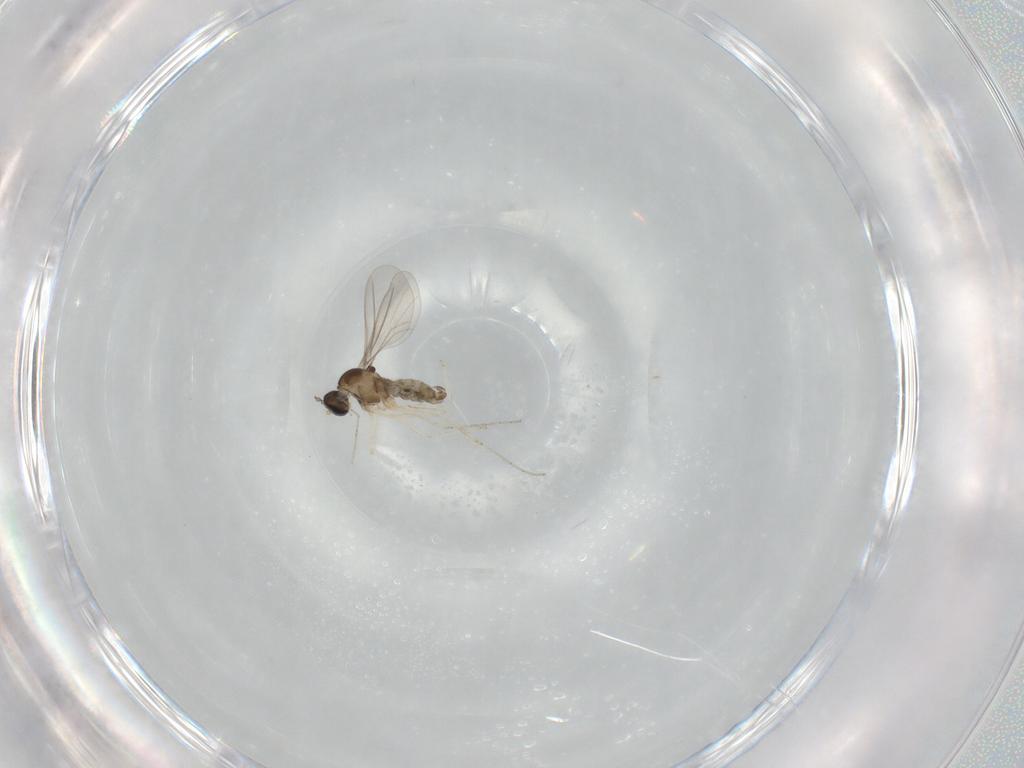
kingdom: Animalia
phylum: Arthropoda
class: Insecta
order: Diptera
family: Cecidomyiidae
